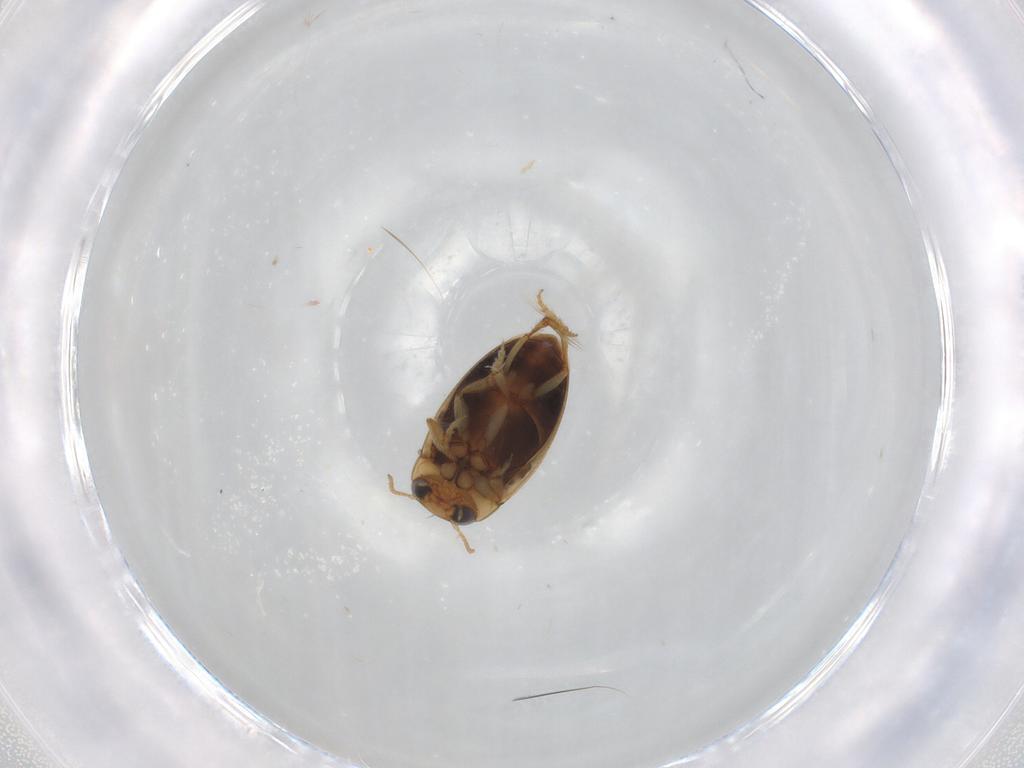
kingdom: Animalia
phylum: Arthropoda
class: Insecta
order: Coleoptera
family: Dytiscidae
